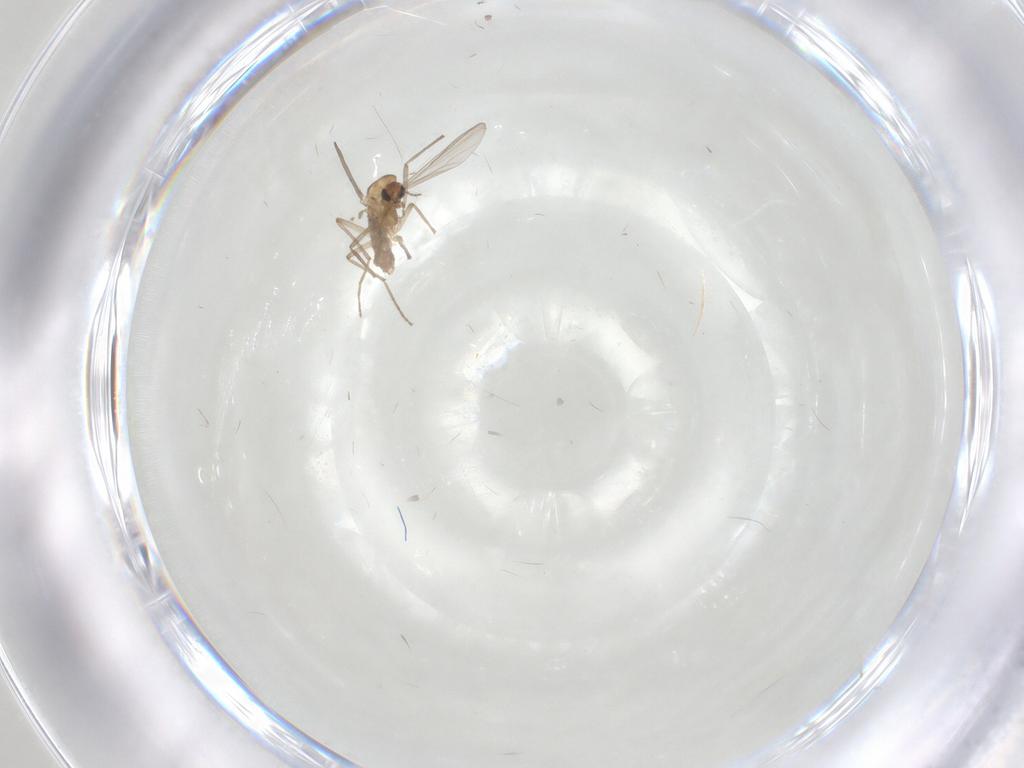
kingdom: Animalia
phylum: Arthropoda
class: Insecta
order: Diptera
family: Chironomidae
